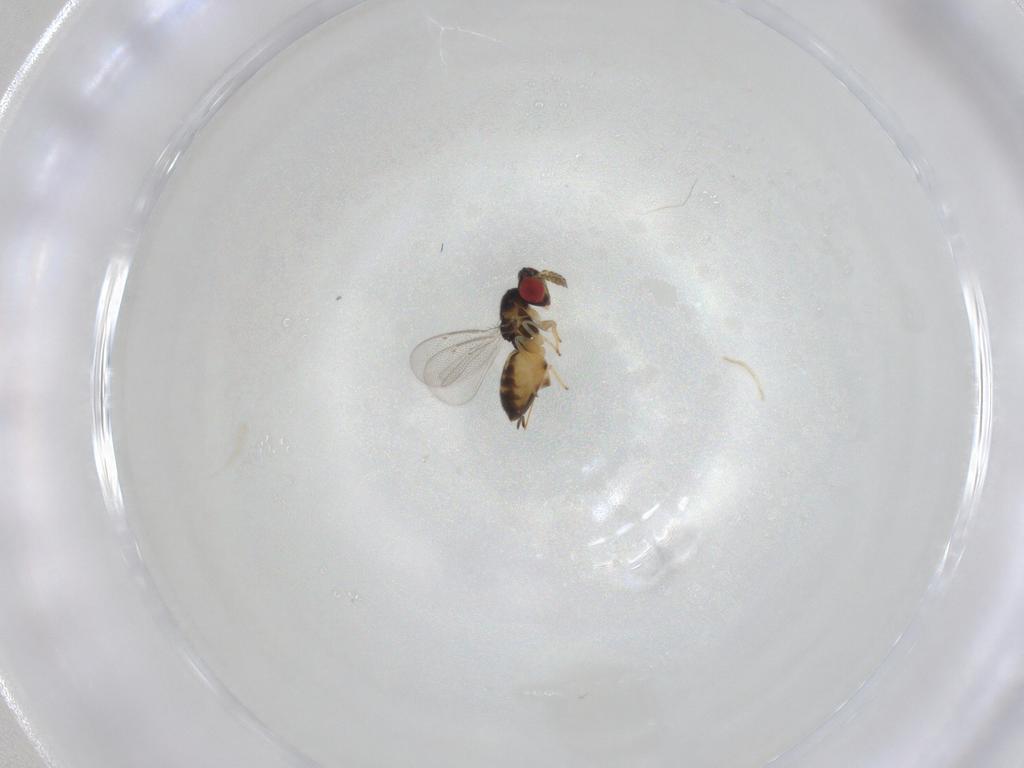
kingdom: Animalia
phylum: Arthropoda
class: Insecta
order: Hymenoptera
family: Eulophidae
